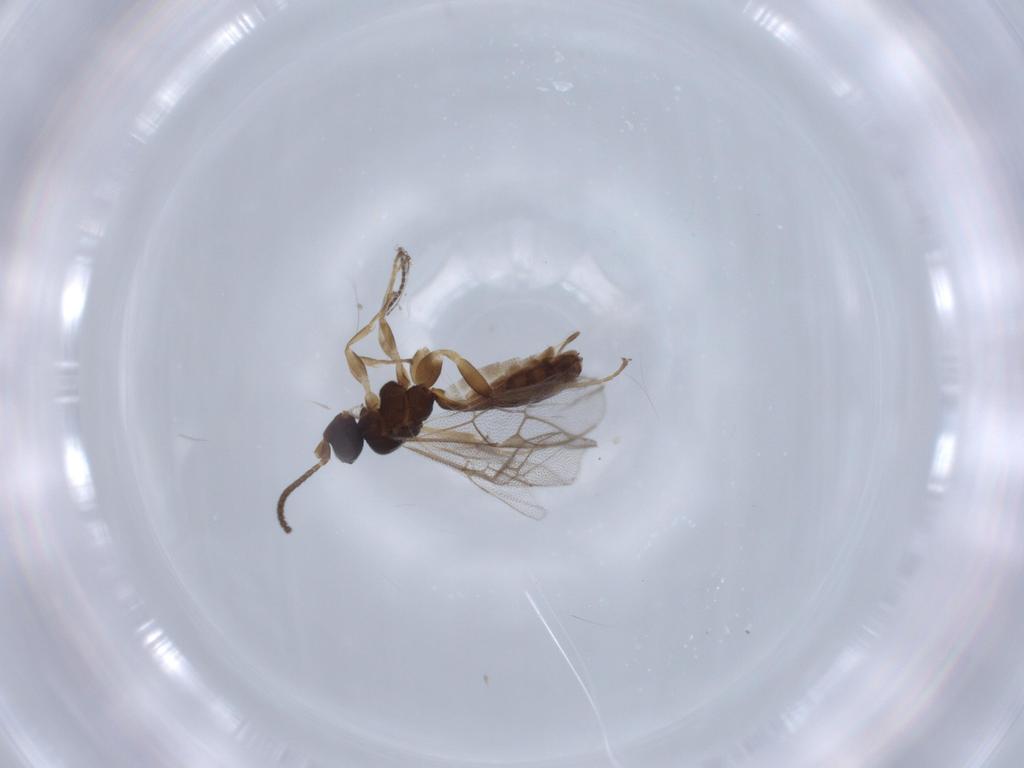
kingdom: Animalia
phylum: Arthropoda
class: Insecta
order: Hymenoptera
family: Ichneumonidae
